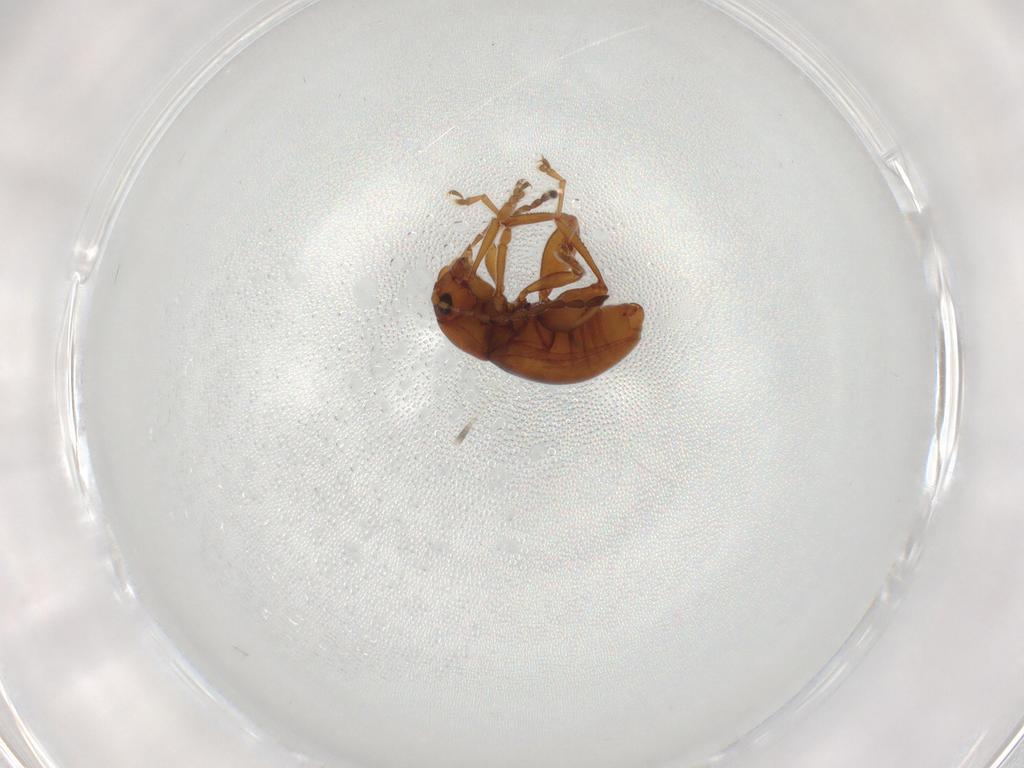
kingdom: Animalia
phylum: Arthropoda
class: Insecta
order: Coleoptera
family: Chrysomelidae
